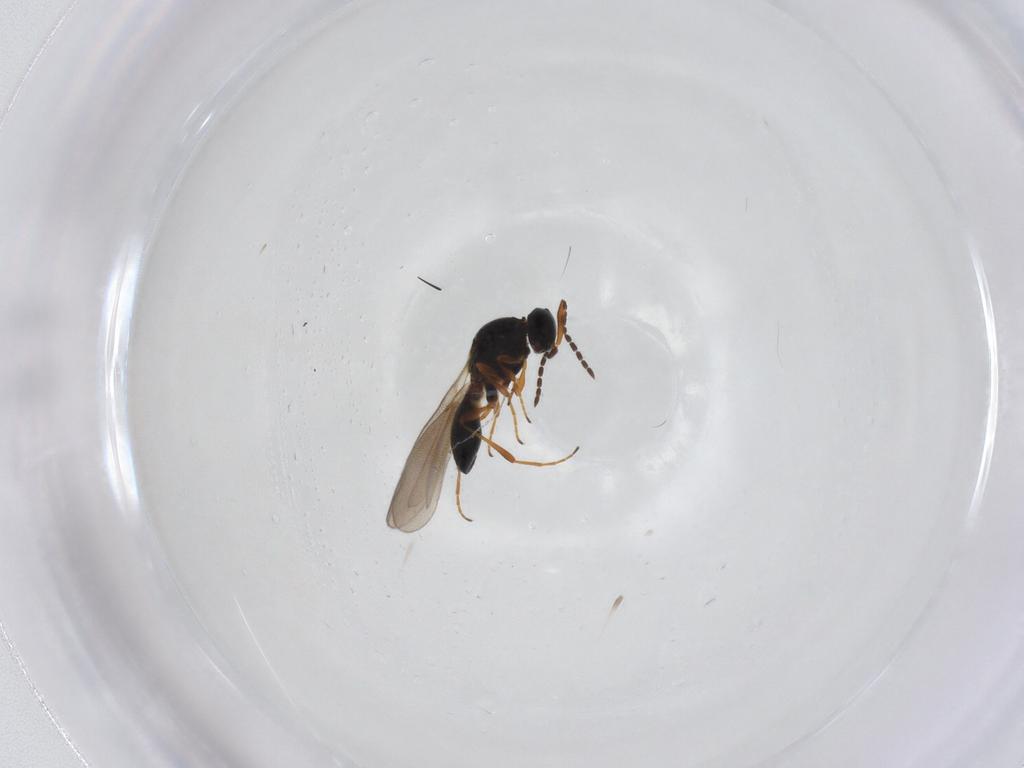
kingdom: Animalia
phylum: Arthropoda
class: Insecta
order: Hymenoptera
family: Platygastridae
